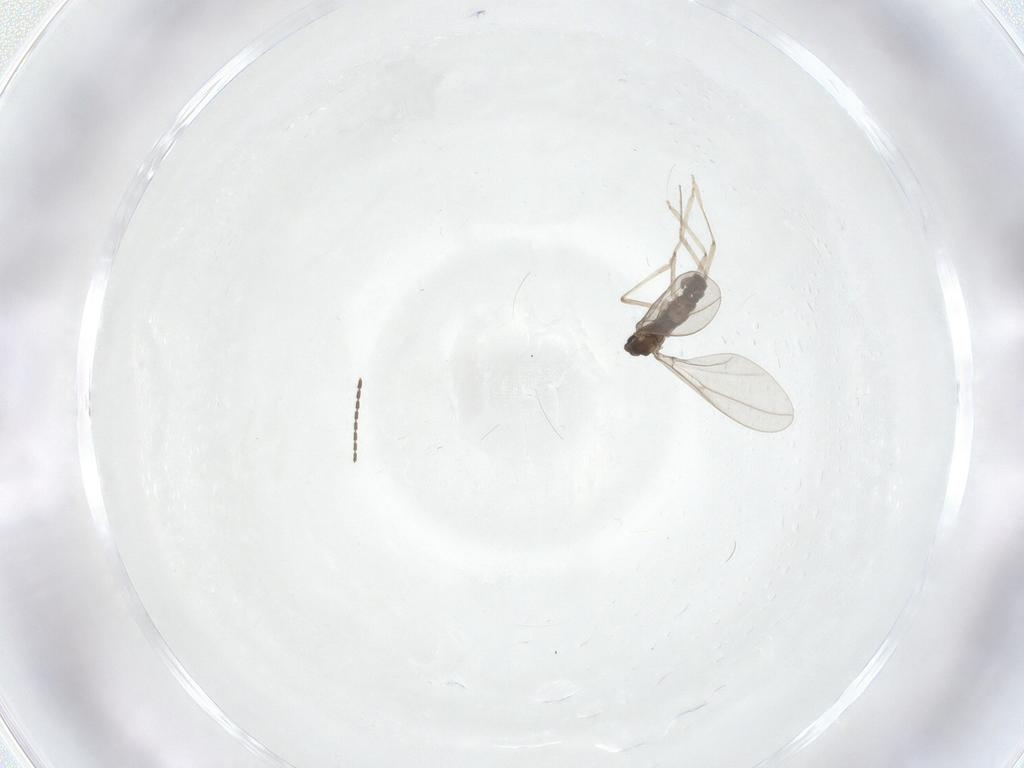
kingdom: Animalia
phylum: Arthropoda
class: Insecta
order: Diptera
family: Sciaridae
